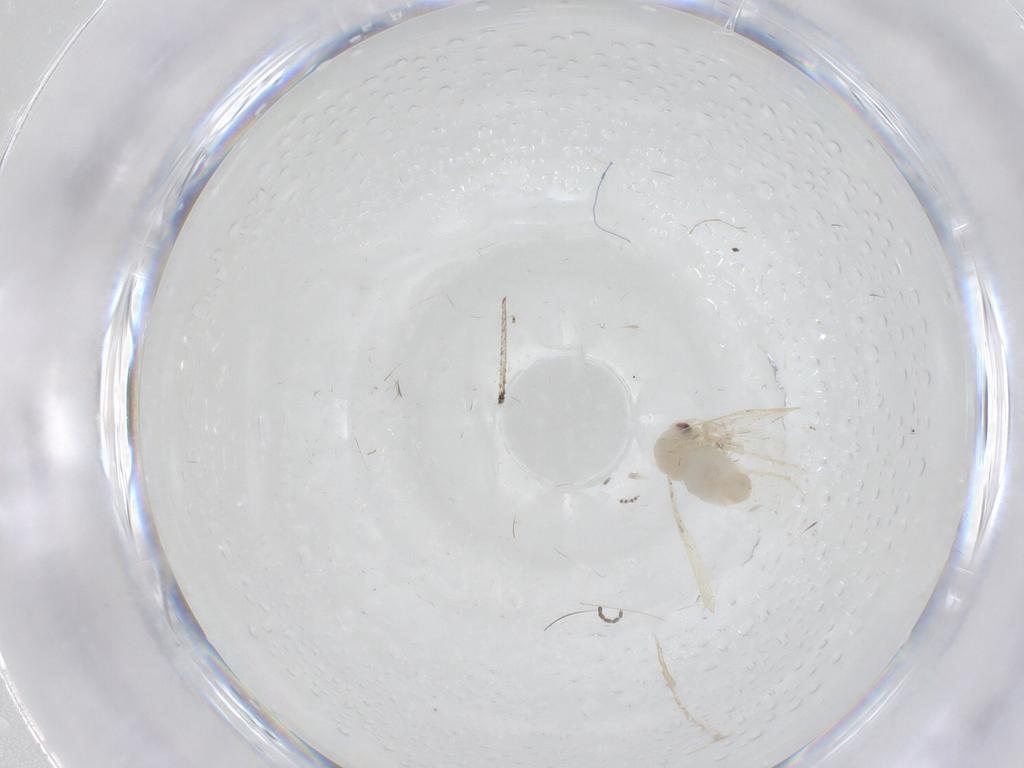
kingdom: Animalia
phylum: Arthropoda
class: Insecta
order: Hemiptera
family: Aleyrodidae
